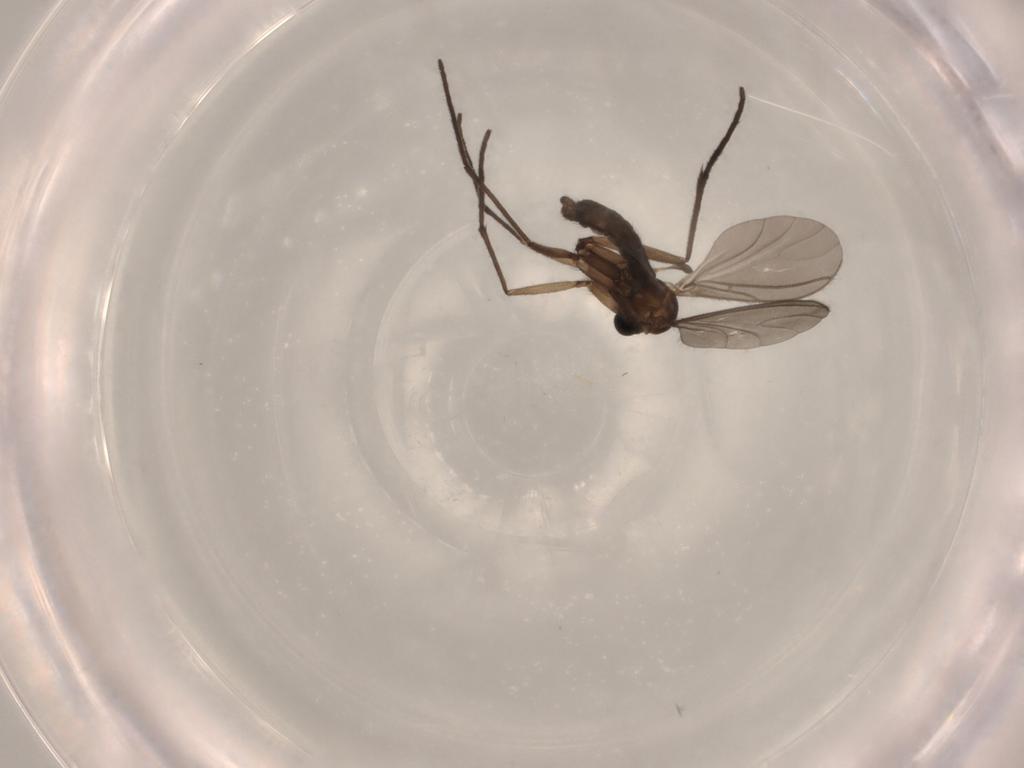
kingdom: Animalia
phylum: Arthropoda
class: Insecta
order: Diptera
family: Sciaridae
